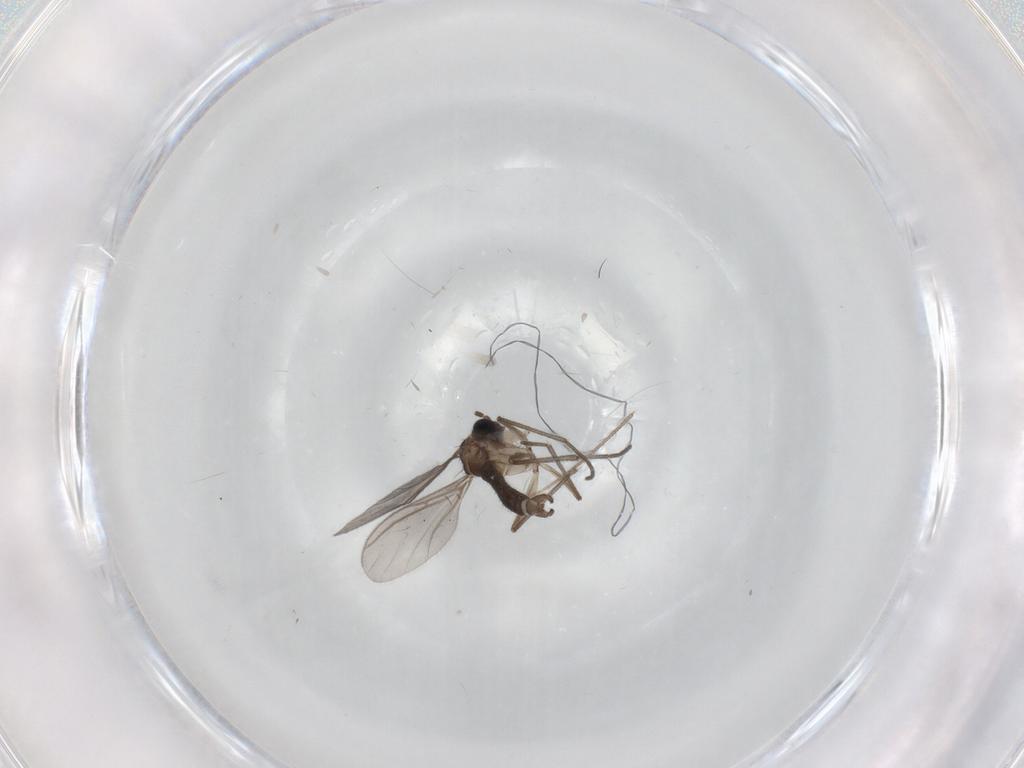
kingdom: Animalia
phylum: Arthropoda
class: Insecta
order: Diptera
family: Sciaridae
